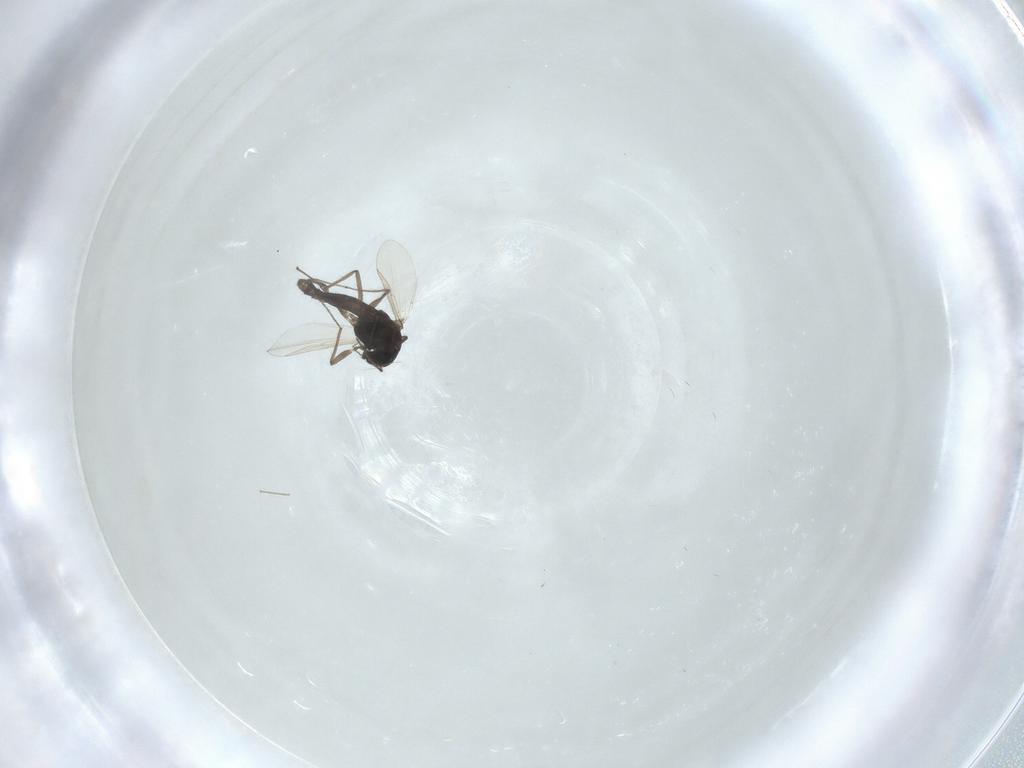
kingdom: Animalia
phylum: Arthropoda
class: Insecta
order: Diptera
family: Chironomidae
